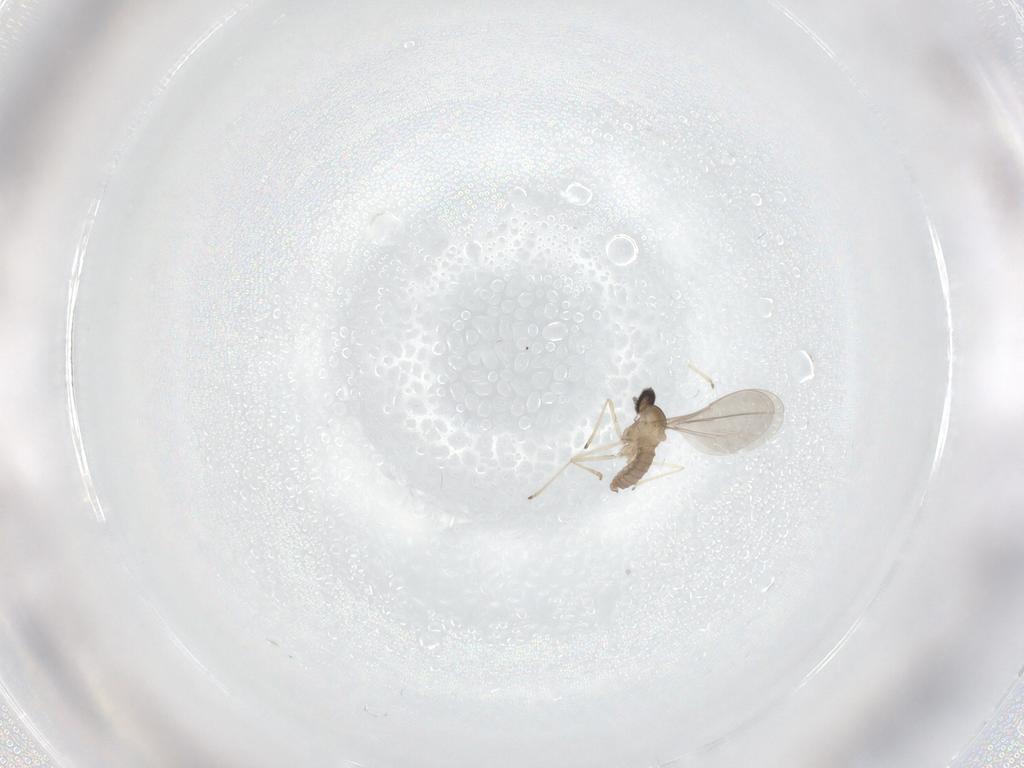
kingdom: Animalia
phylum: Arthropoda
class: Insecta
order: Diptera
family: Phoridae
